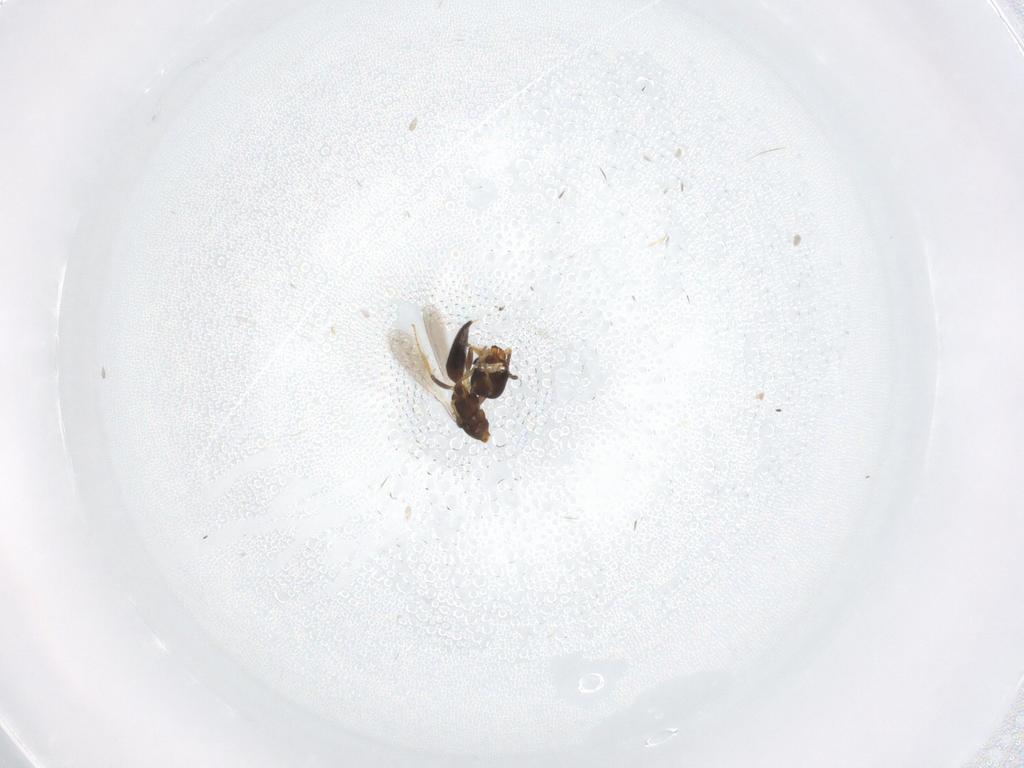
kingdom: Animalia
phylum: Arthropoda
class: Insecta
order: Hymenoptera
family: Bethylidae
